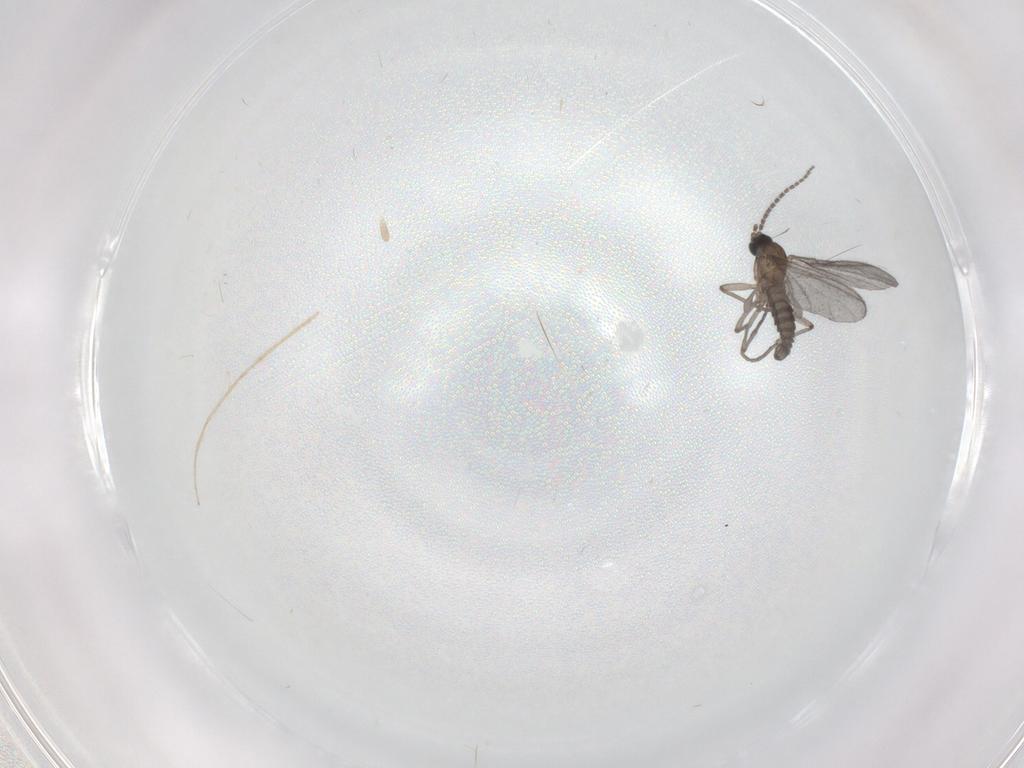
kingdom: Animalia
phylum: Arthropoda
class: Insecta
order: Diptera
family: Sciaridae
